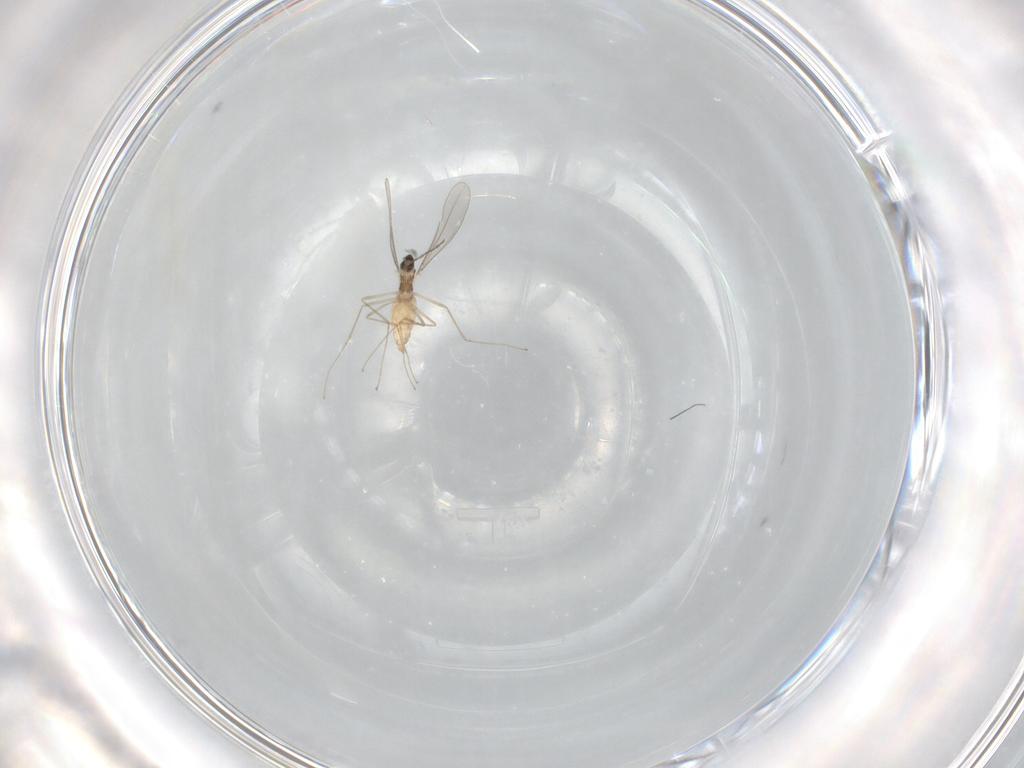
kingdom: Animalia
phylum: Arthropoda
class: Insecta
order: Diptera
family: Cecidomyiidae
